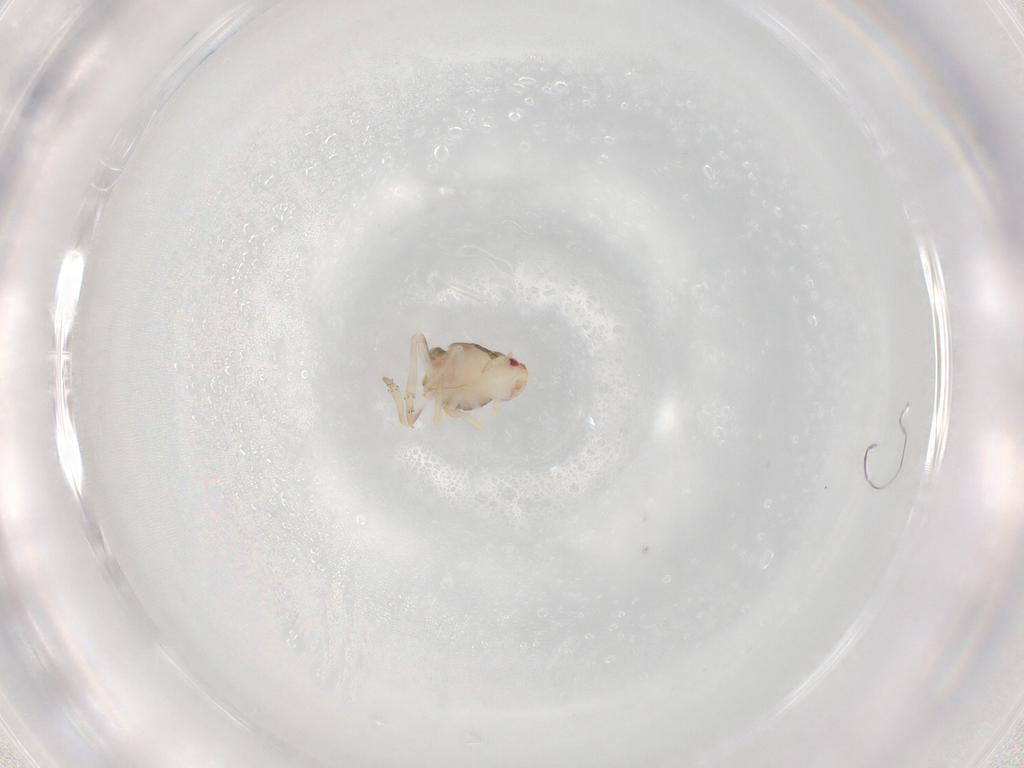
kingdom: Animalia
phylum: Arthropoda
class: Insecta
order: Hemiptera
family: Ricaniidae
